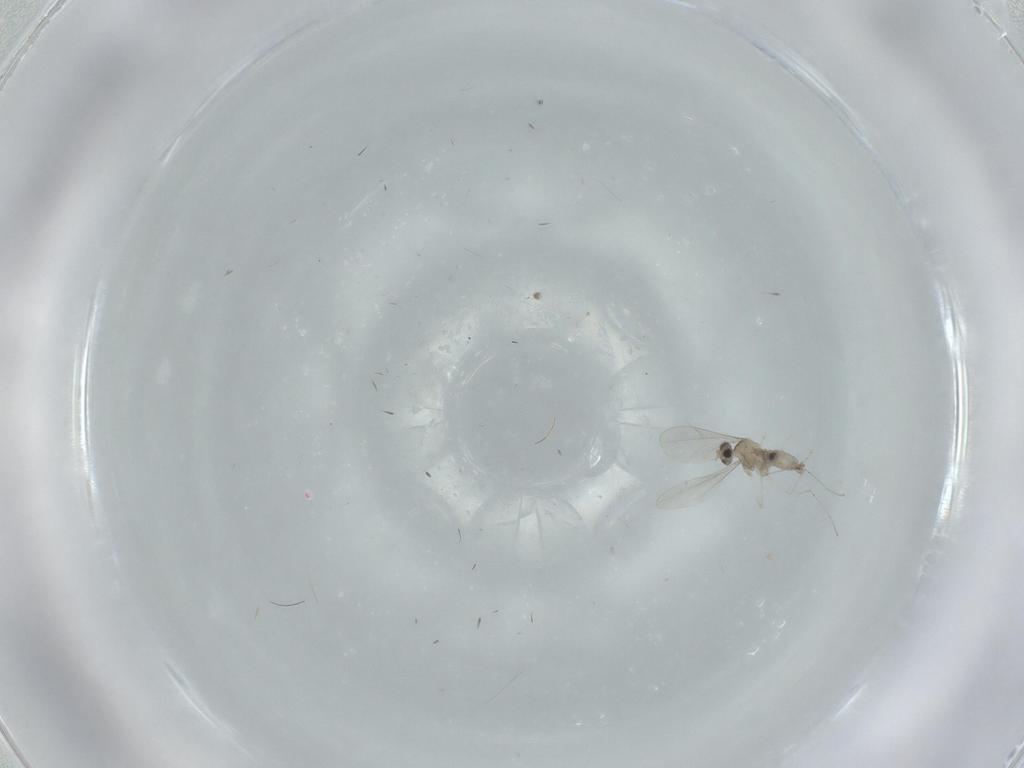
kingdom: Animalia
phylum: Arthropoda
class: Insecta
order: Diptera
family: Cecidomyiidae
